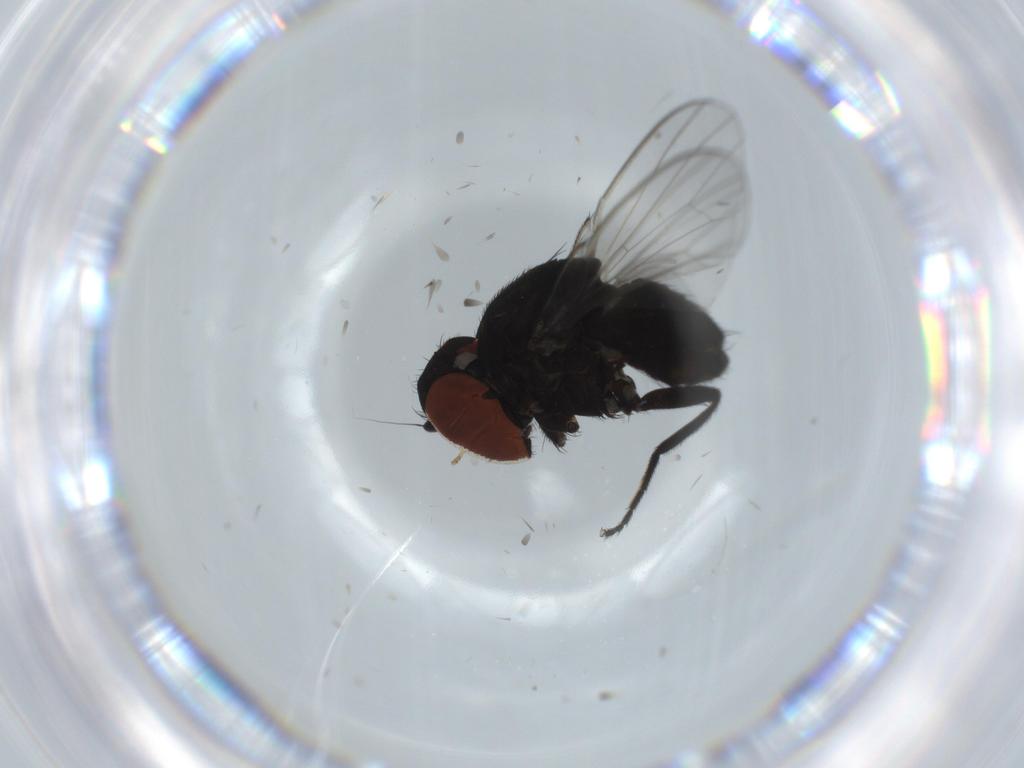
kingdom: Animalia
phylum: Arthropoda
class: Insecta
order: Diptera
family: Milichiidae
